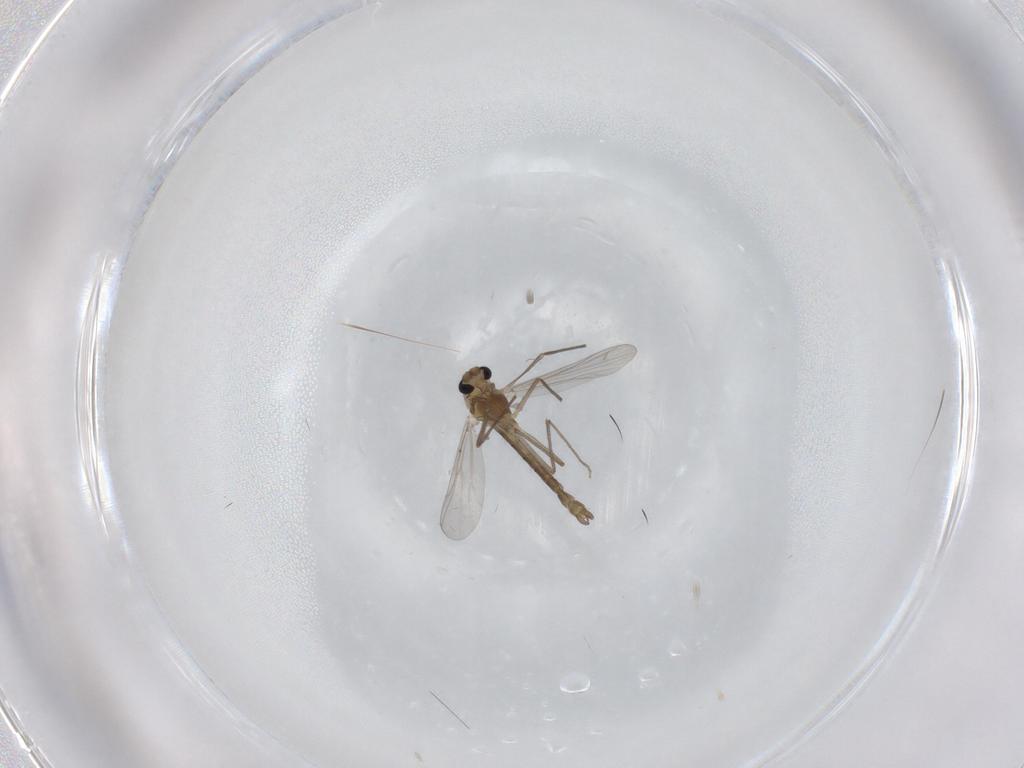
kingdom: Animalia
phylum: Arthropoda
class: Insecta
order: Diptera
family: Chironomidae
